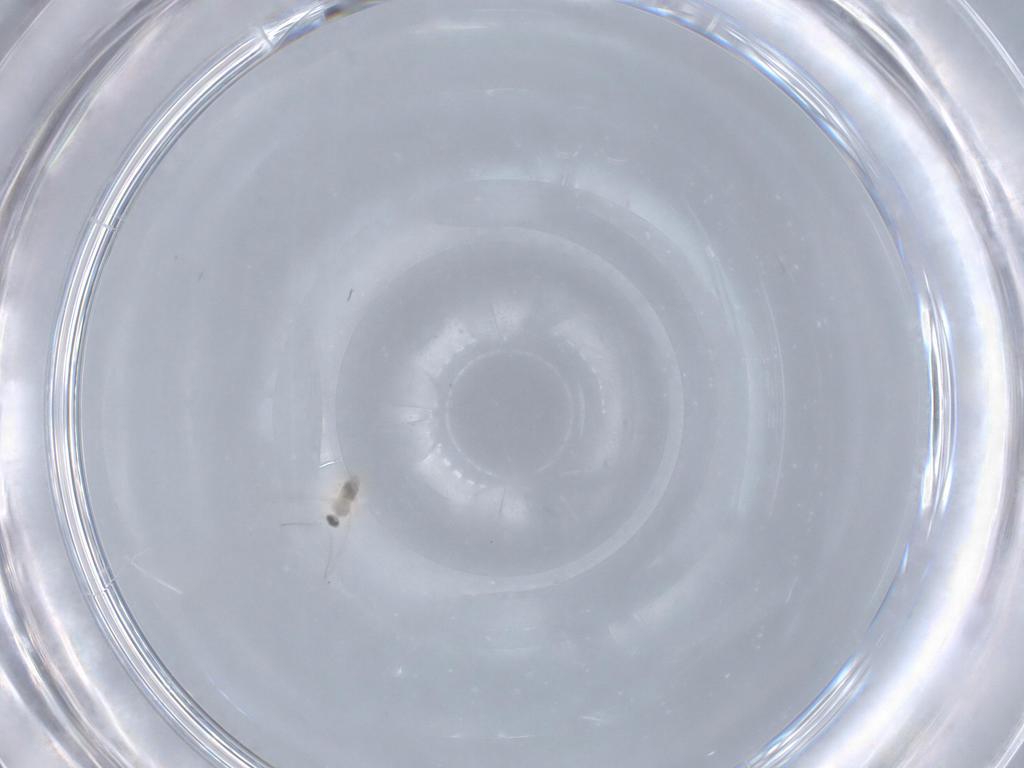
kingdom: Animalia
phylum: Arthropoda
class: Insecta
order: Diptera
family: Cecidomyiidae
